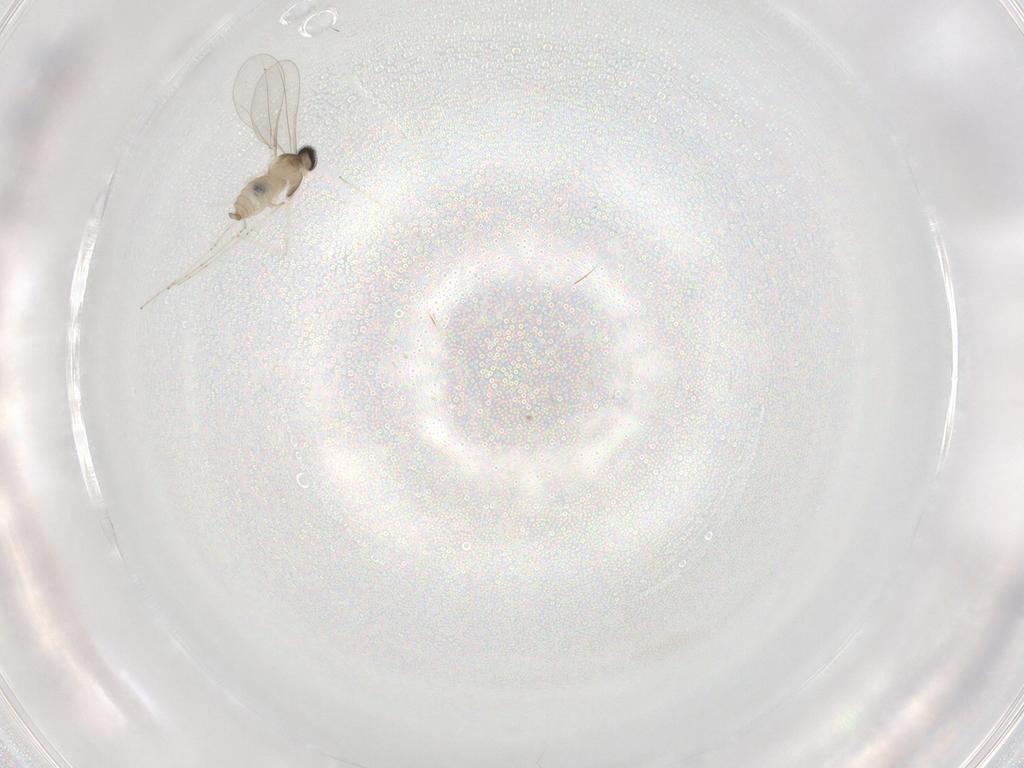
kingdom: Animalia
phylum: Arthropoda
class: Insecta
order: Diptera
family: Cecidomyiidae
